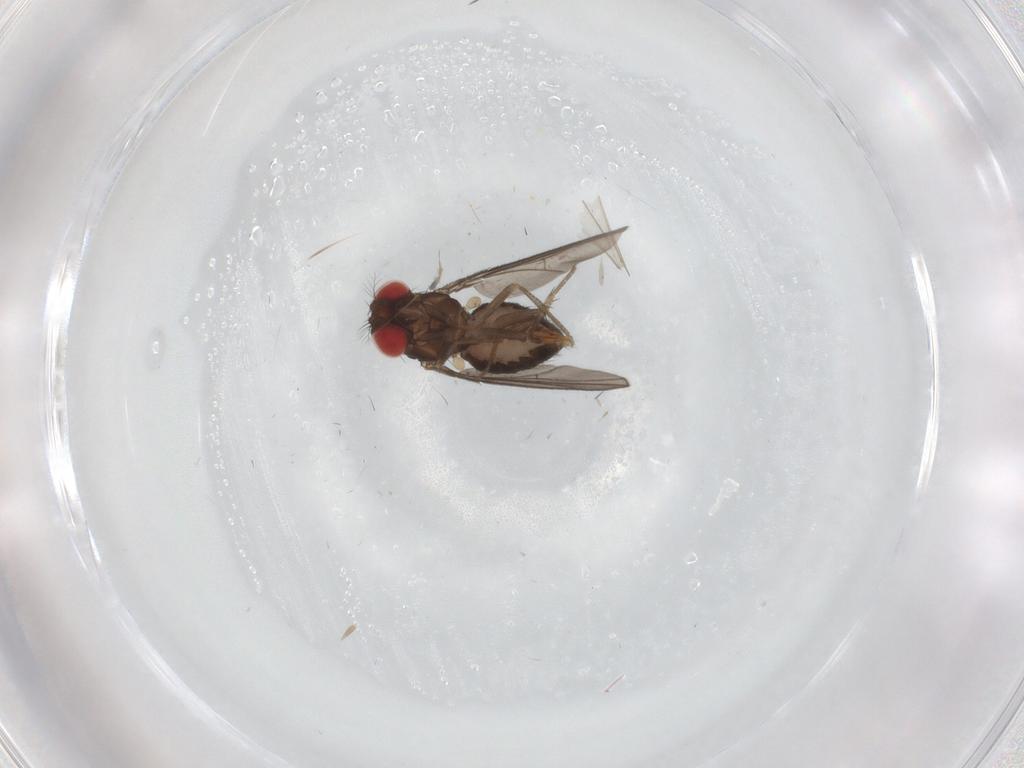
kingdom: Animalia
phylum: Arthropoda
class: Insecta
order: Diptera
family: Drosophilidae
